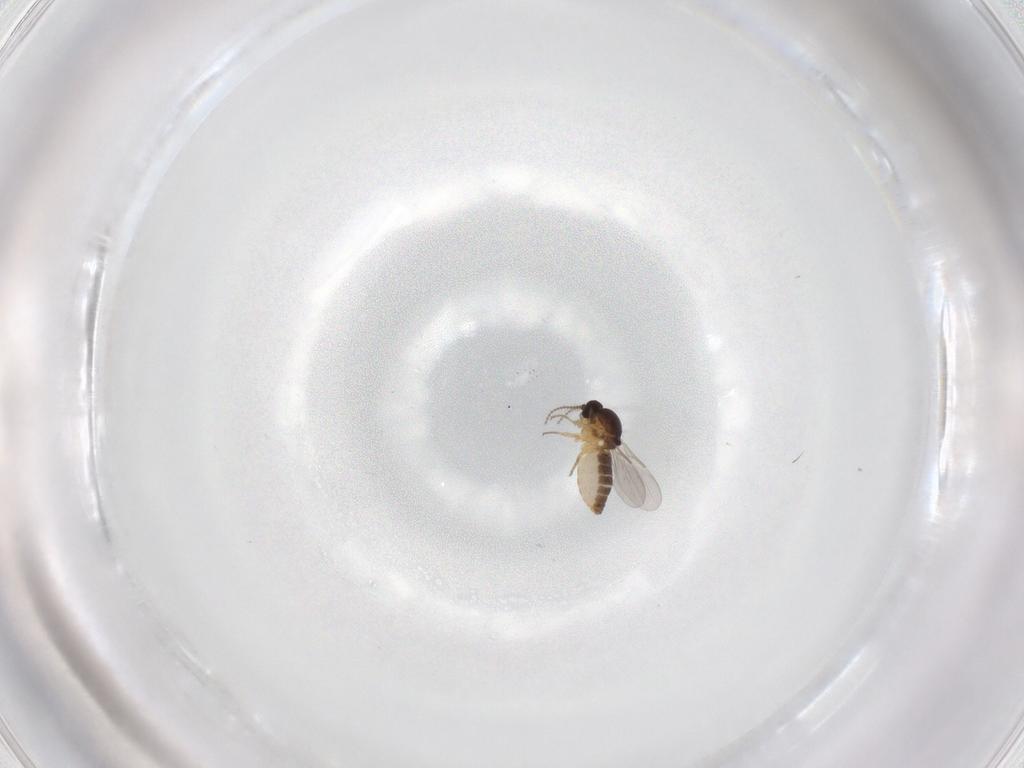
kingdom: Animalia
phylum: Arthropoda
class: Insecta
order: Diptera
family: Ceratopogonidae
